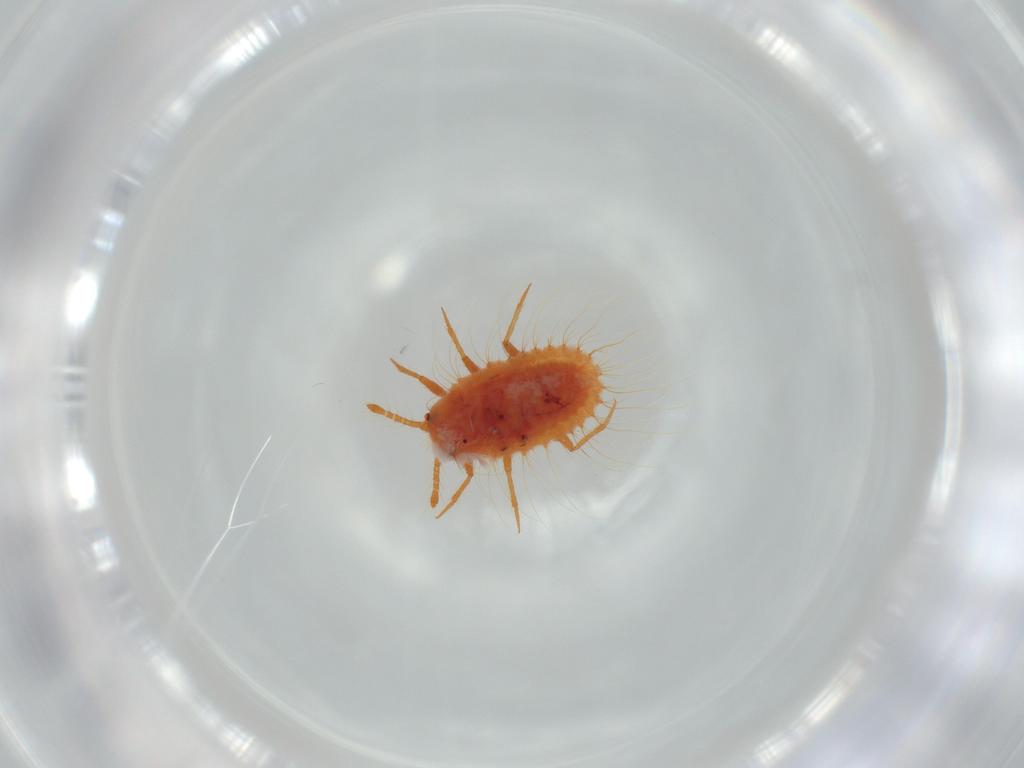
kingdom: Animalia
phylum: Arthropoda
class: Insecta
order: Hemiptera
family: Coccoidea_incertae_sedis
